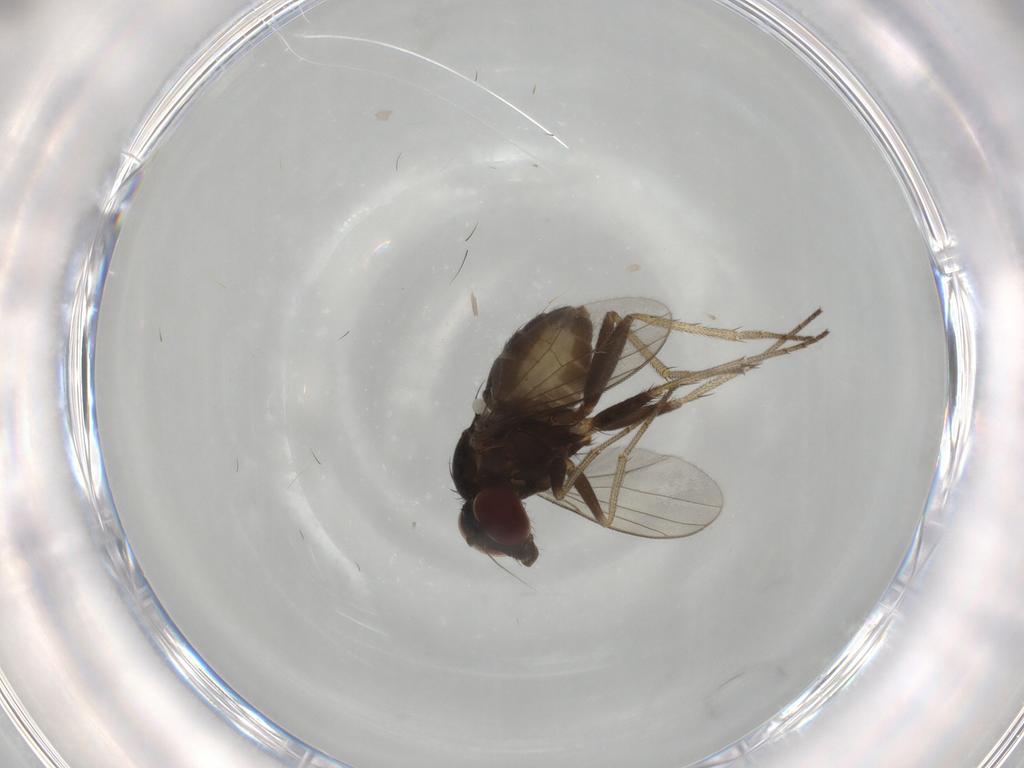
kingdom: Animalia
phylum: Arthropoda
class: Insecta
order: Diptera
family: Dolichopodidae
